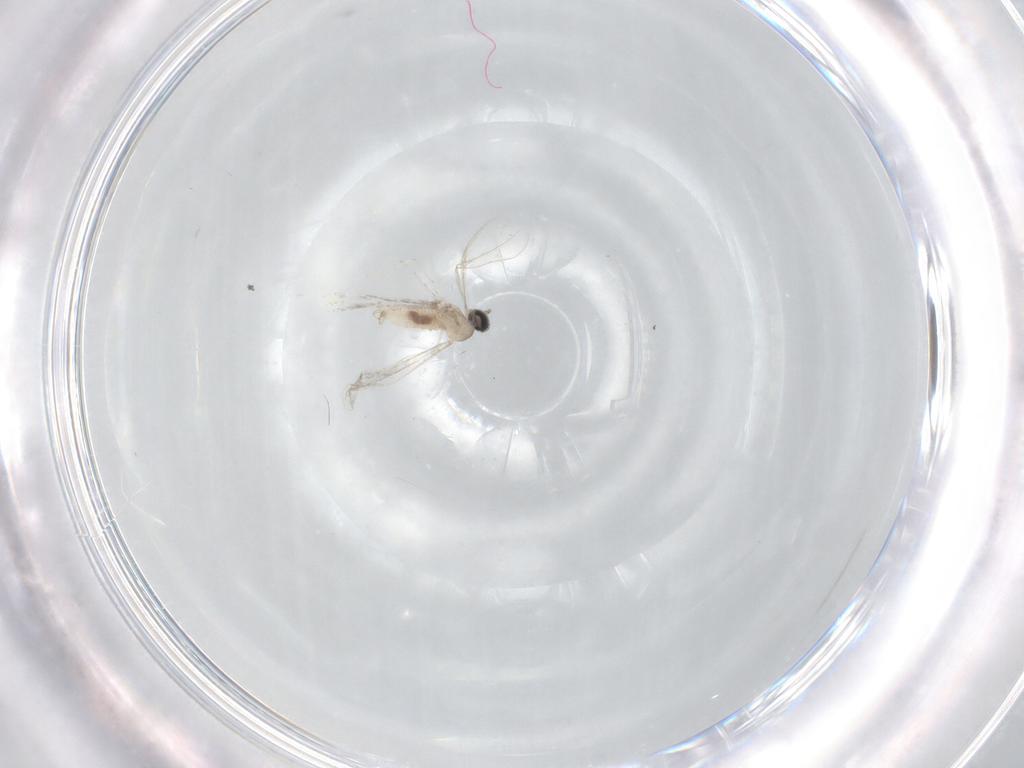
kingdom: Animalia
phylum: Arthropoda
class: Insecta
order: Diptera
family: Cecidomyiidae
